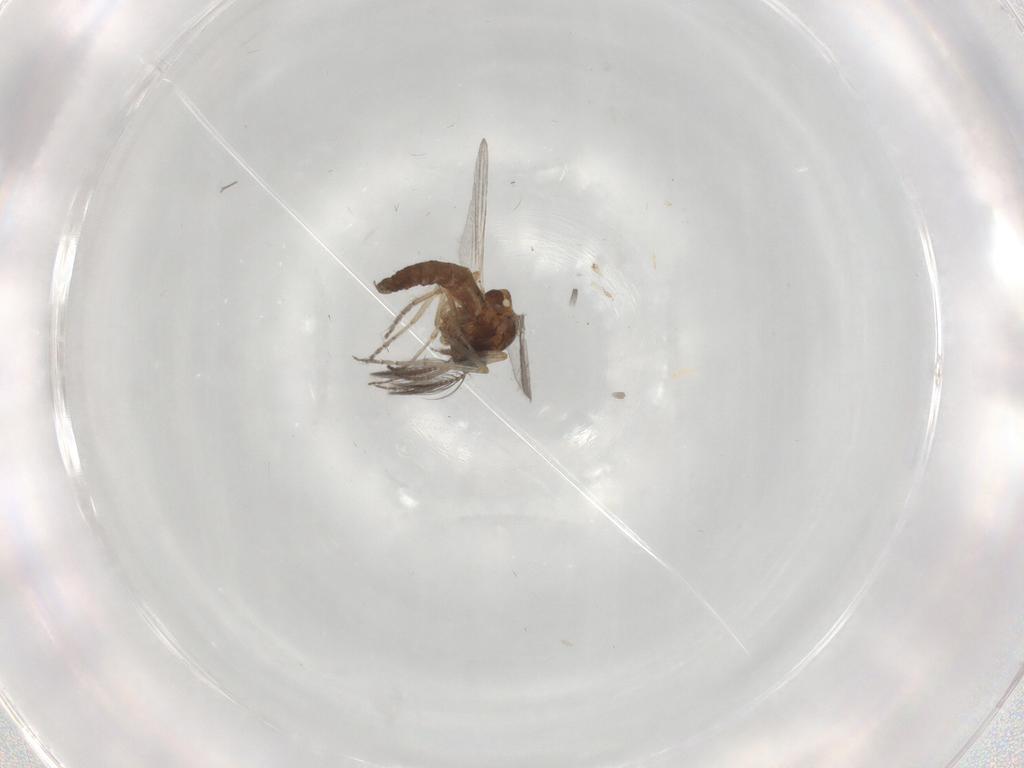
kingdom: Animalia
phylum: Arthropoda
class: Insecta
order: Diptera
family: Ceratopogonidae
